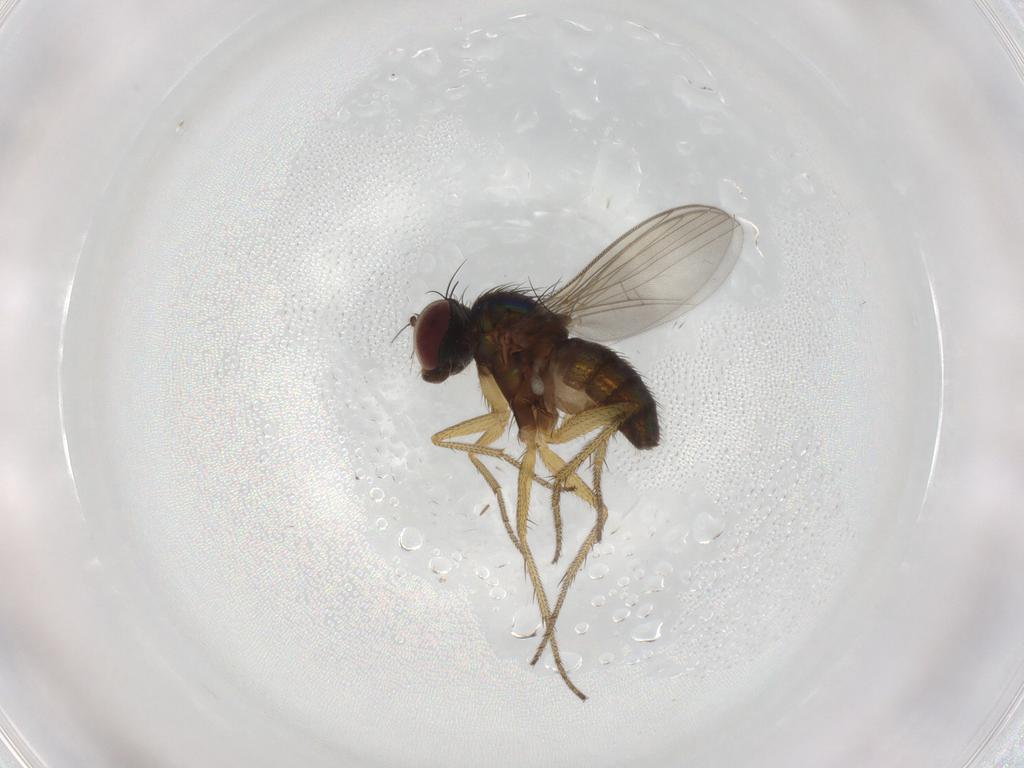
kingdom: Animalia
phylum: Arthropoda
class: Insecta
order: Diptera
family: Dolichopodidae
